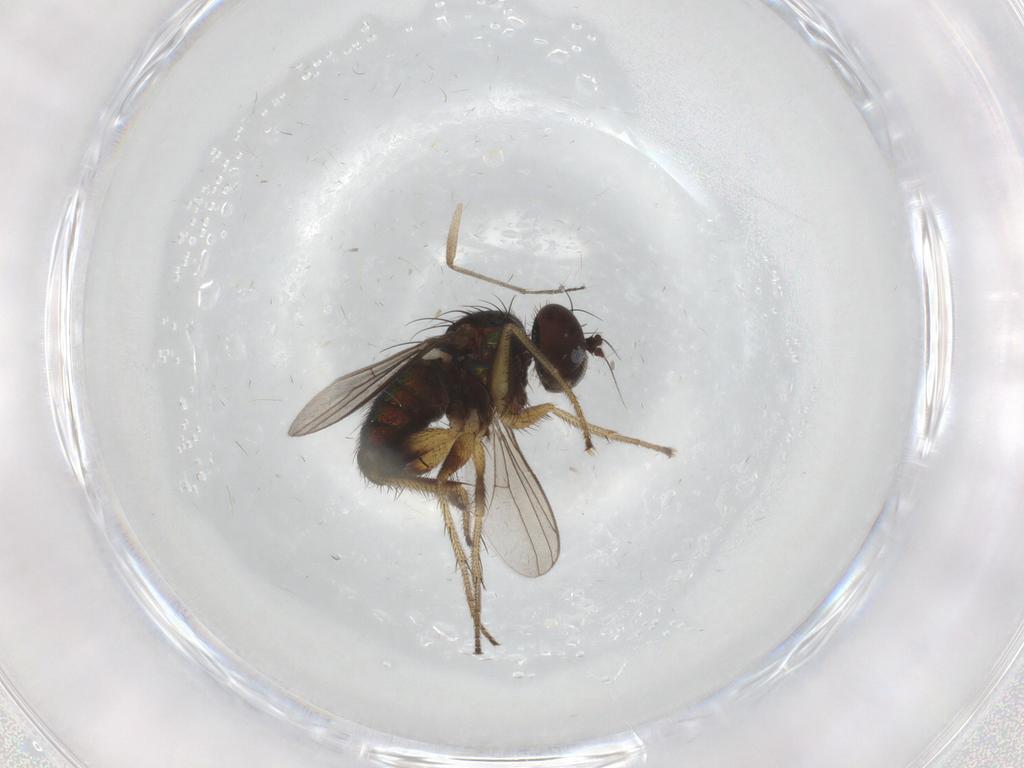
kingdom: Animalia
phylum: Arthropoda
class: Insecta
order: Diptera
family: Dolichopodidae
